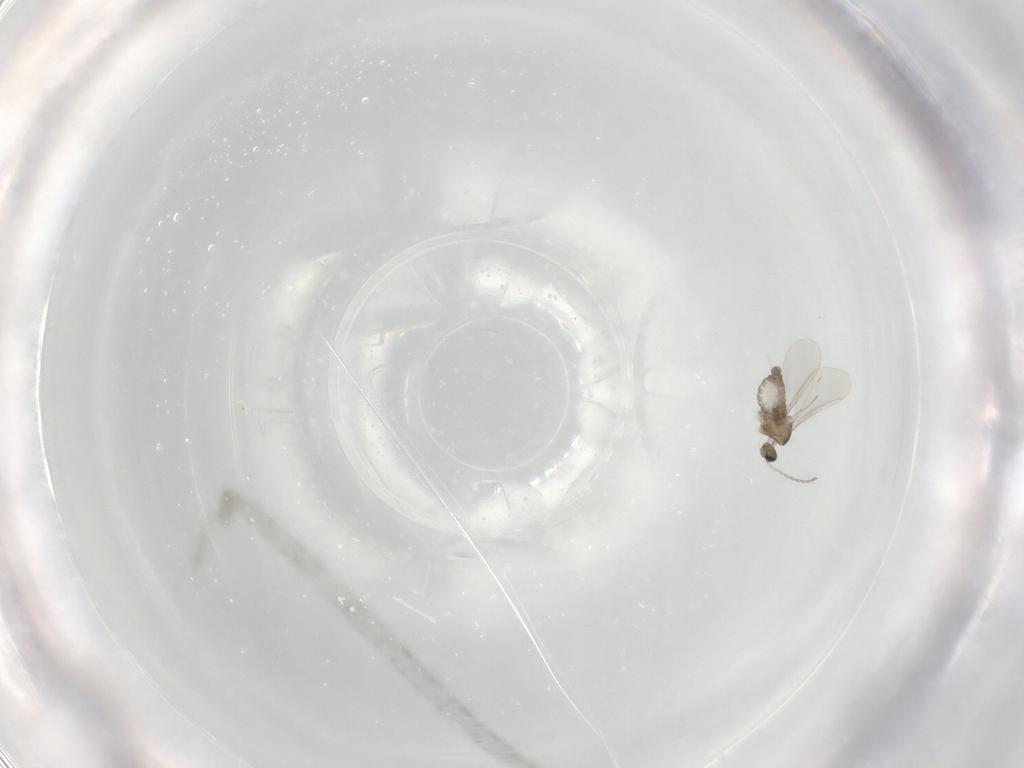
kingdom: Animalia
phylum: Arthropoda
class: Insecta
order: Diptera
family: Cecidomyiidae
